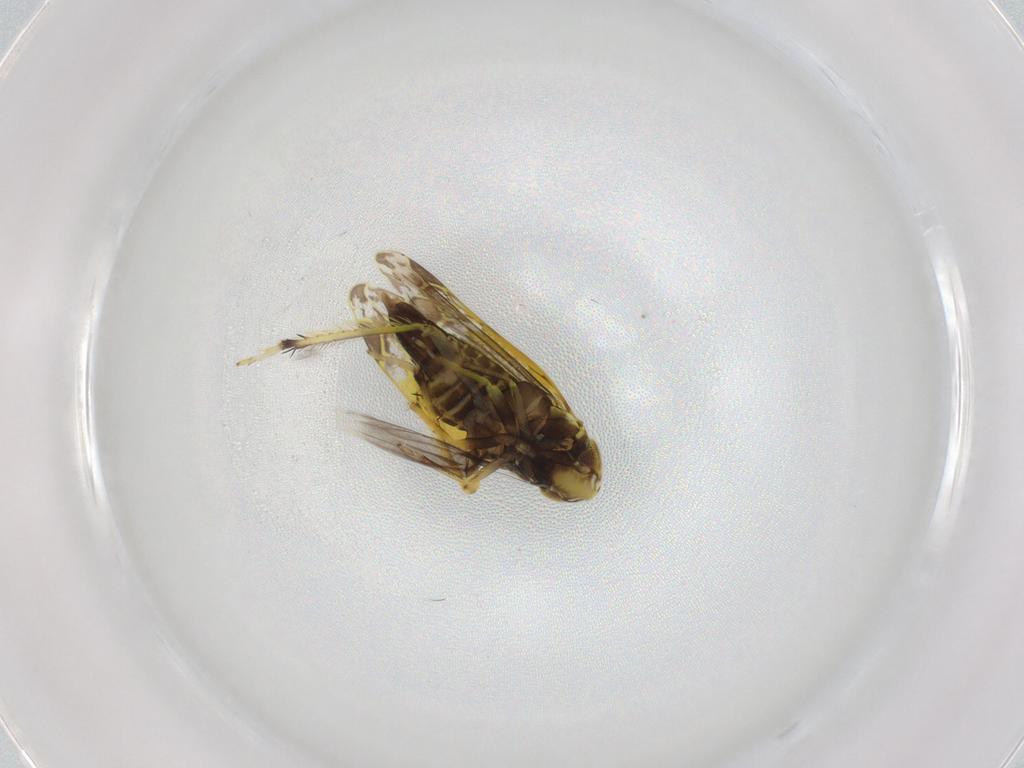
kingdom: Animalia
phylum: Arthropoda
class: Insecta
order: Hemiptera
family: Cicadellidae
